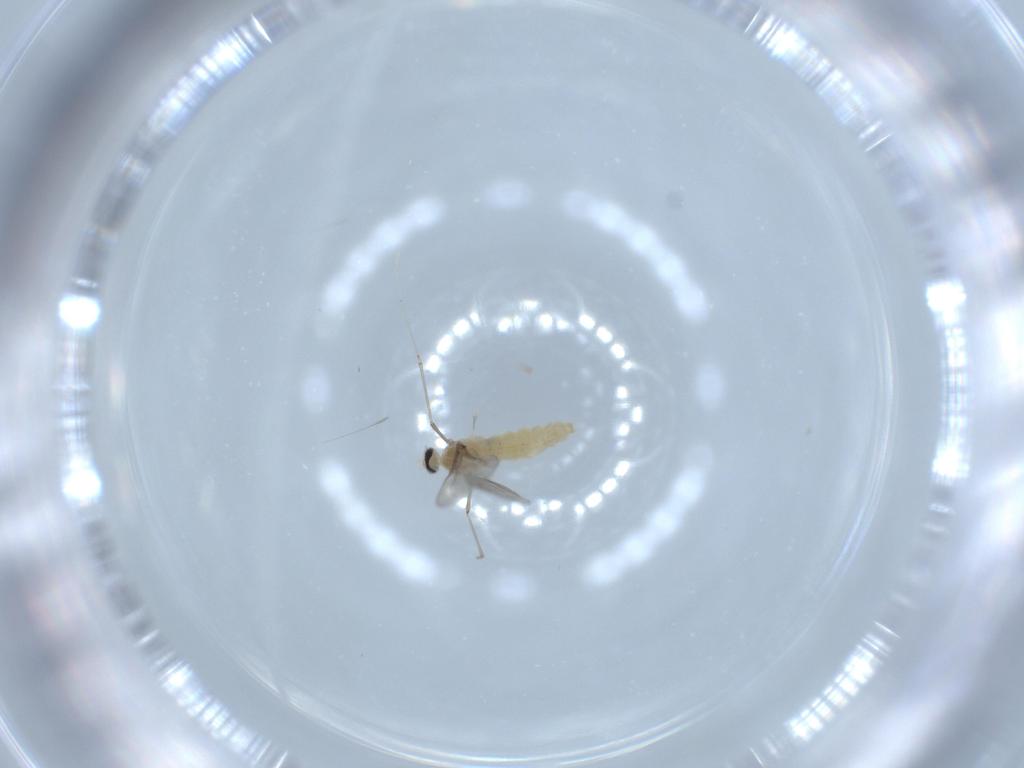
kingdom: Animalia
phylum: Arthropoda
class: Insecta
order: Diptera
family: Cecidomyiidae
